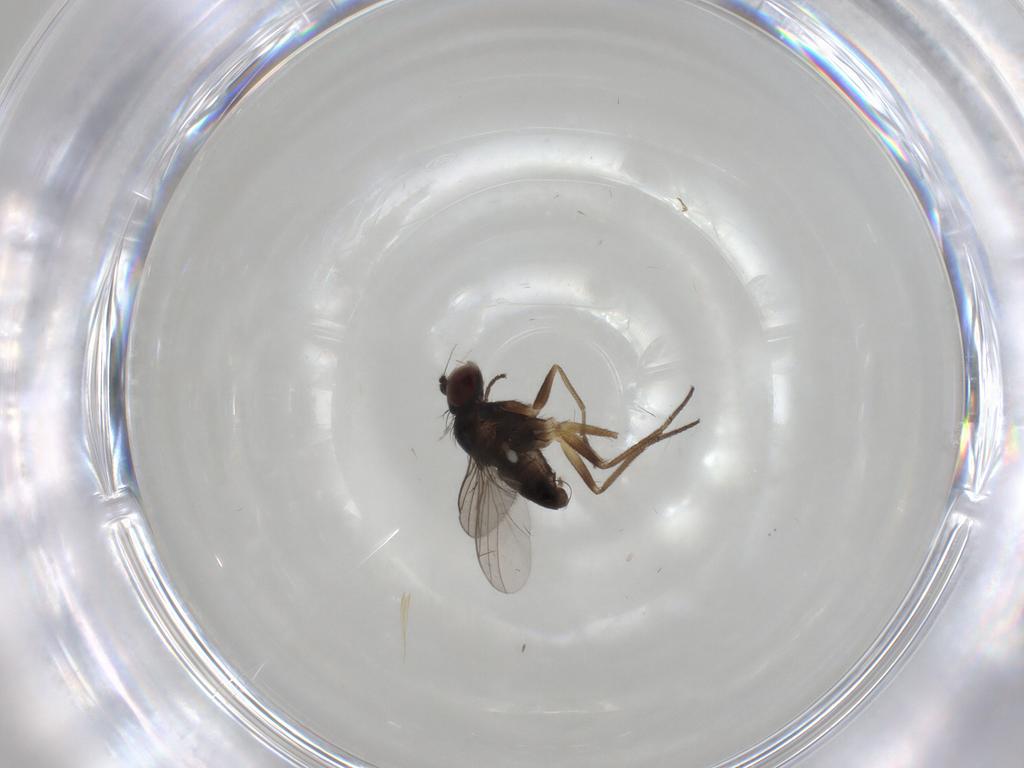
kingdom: Animalia
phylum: Arthropoda
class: Insecta
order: Diptera
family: Dolichopodidae
